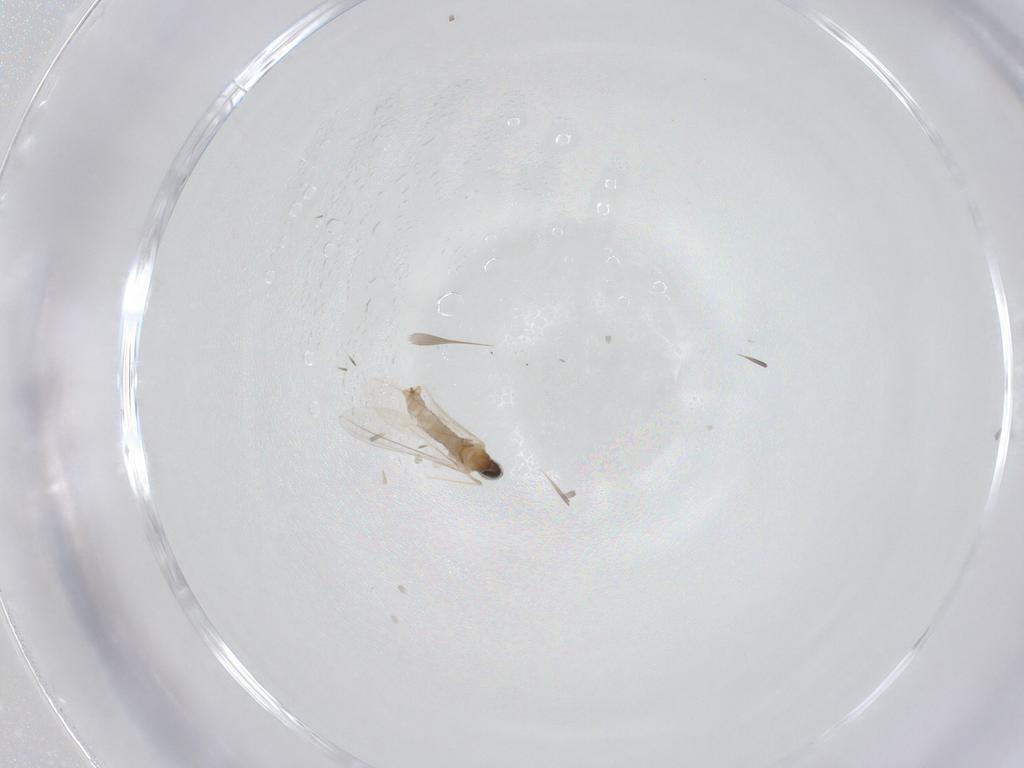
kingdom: Animalia
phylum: Arthropoda
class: Insecta
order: Diptera
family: Cecidomyiidae
